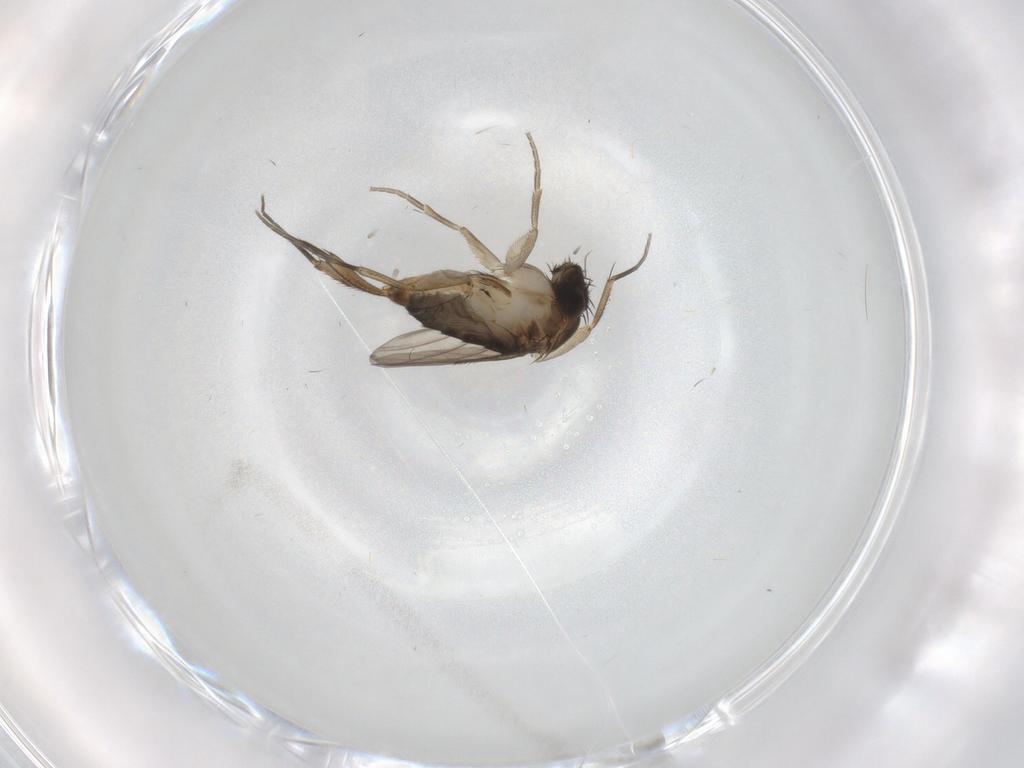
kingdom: Animalia
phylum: Arthropoda
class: Insecta
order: Diptera
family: Phoridae
